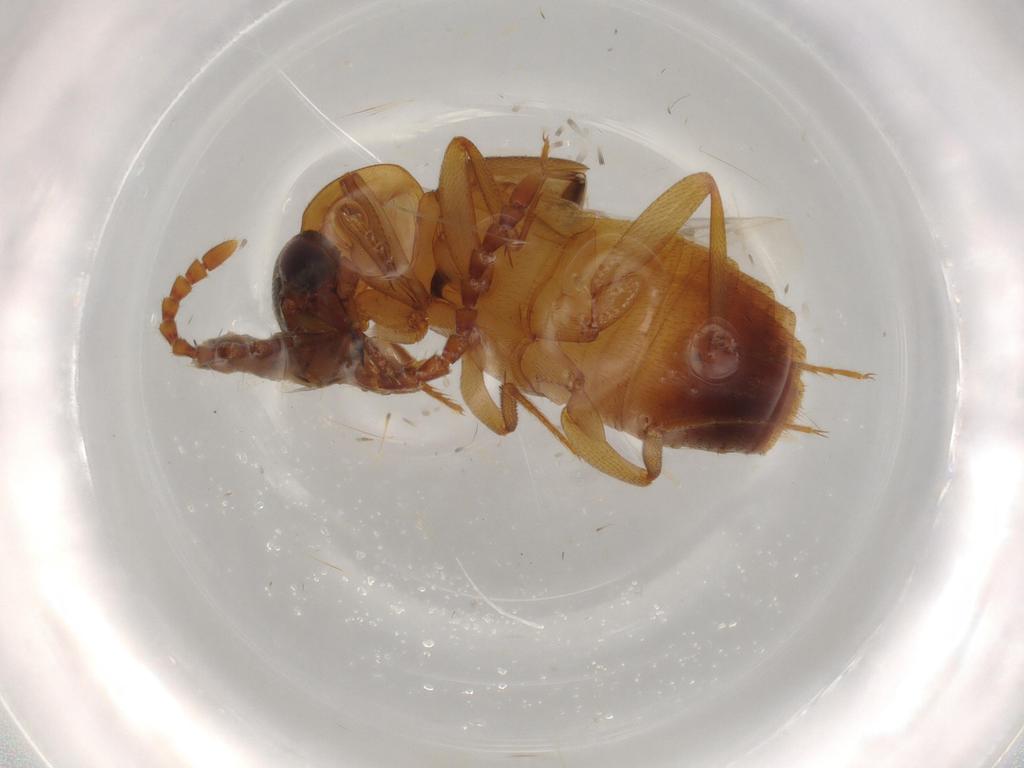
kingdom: Animalia
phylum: Arthropoda
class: Insecta
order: Coleoptera
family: Staphylinidae
